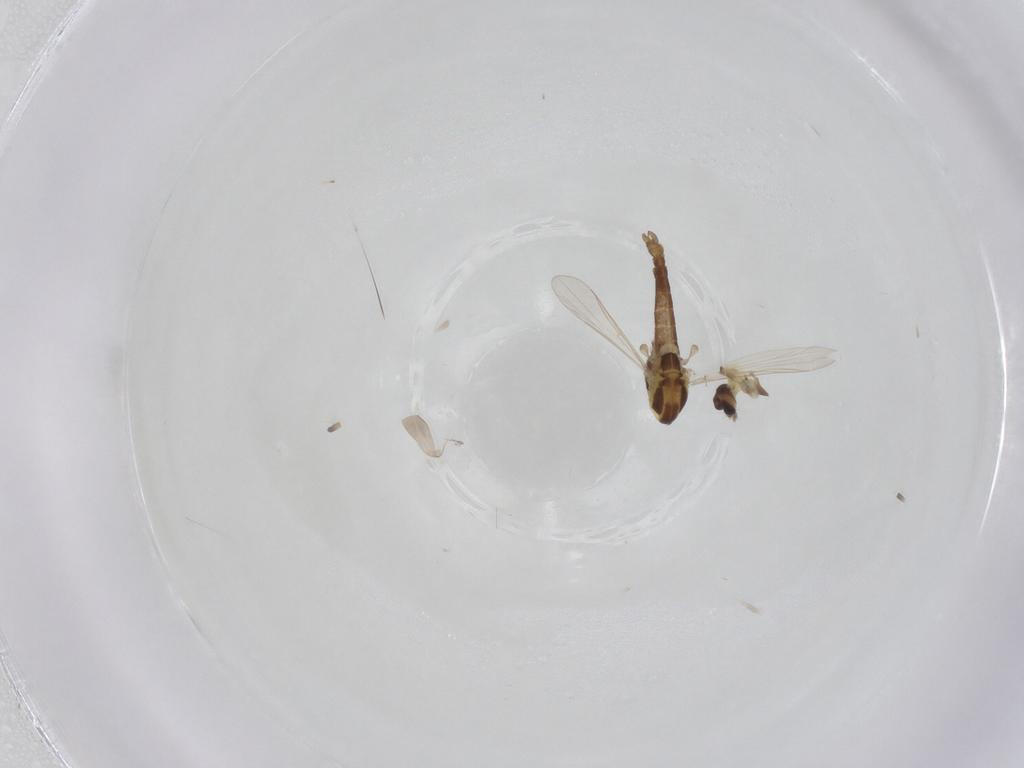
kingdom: Animalia
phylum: Arthropoda
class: Insecta
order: Diptera
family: Chironomidae
